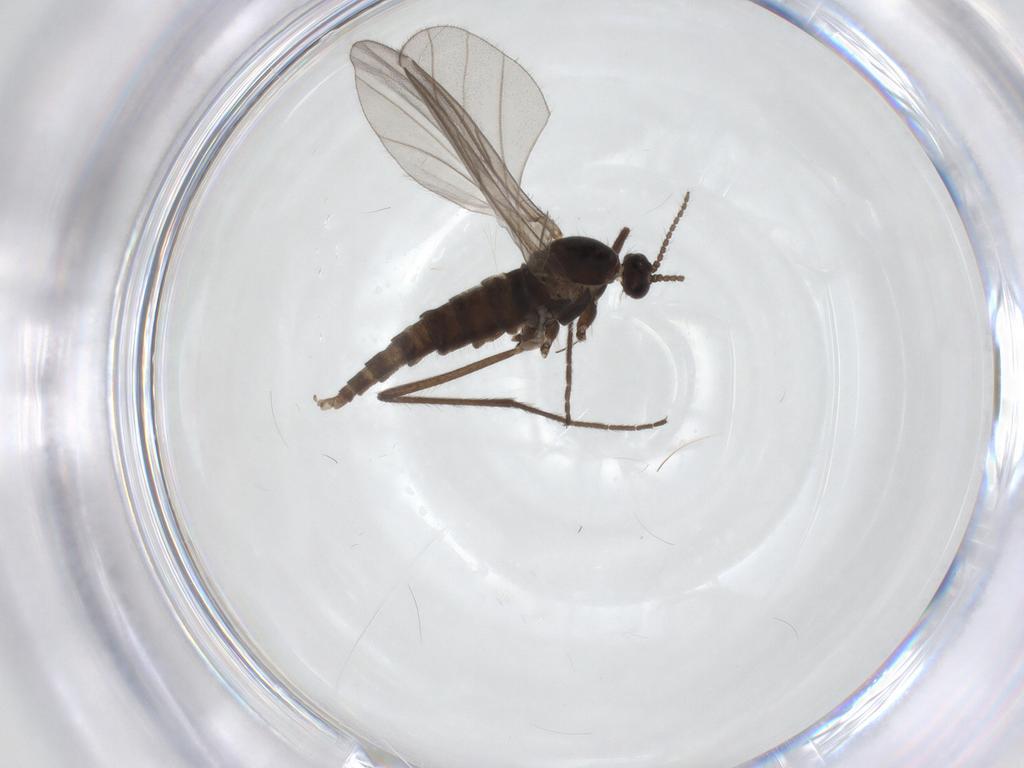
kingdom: Animalia
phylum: Arthropoda
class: Insecta
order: Diptera
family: Cecidomyiidae
